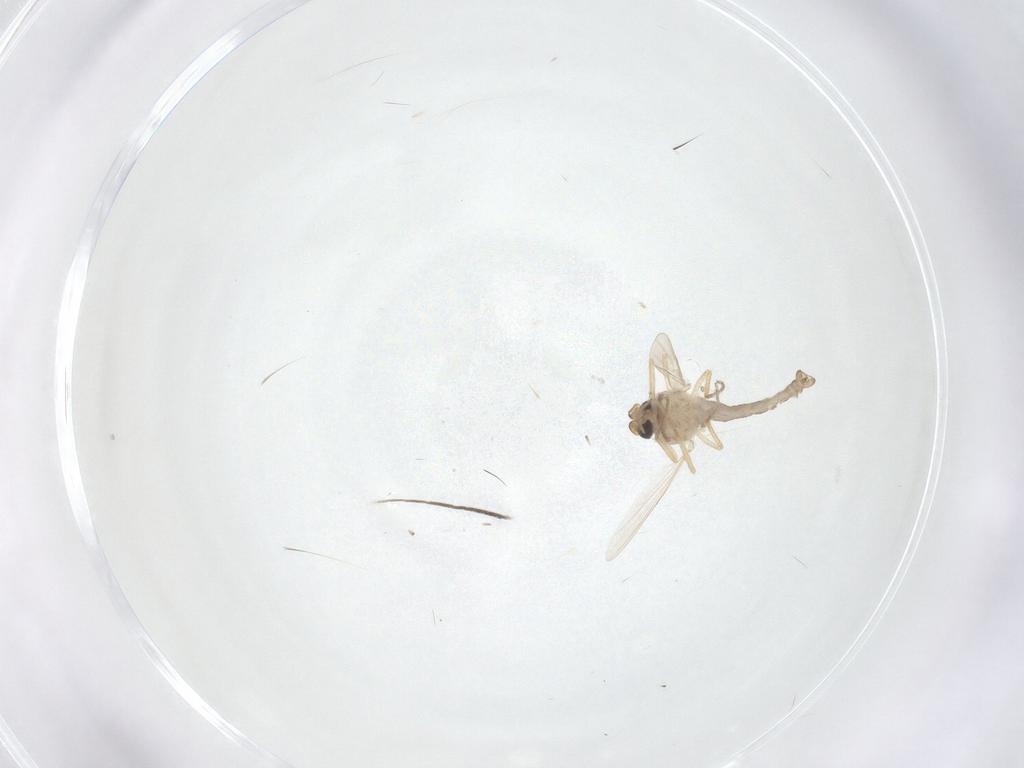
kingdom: Animalia
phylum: Arthropoda
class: Insecta
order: Diptera
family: Ceratopogonidae
